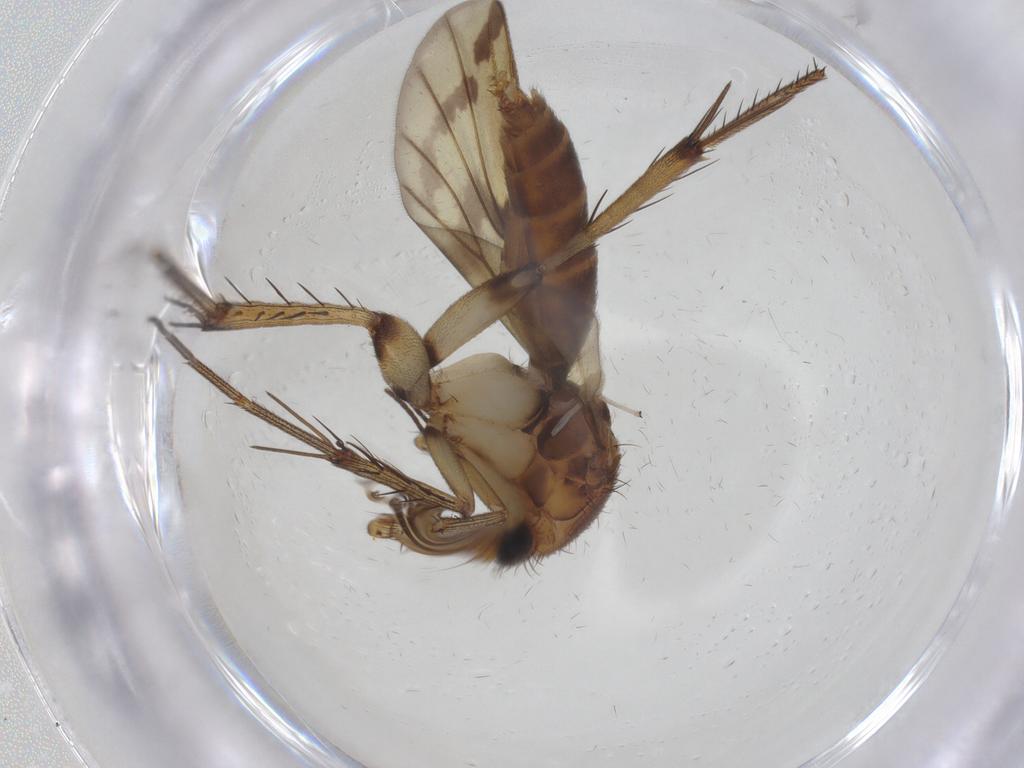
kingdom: Animalia
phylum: Arthropoda
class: Insecta
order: Diptera
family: Mycetophilidae
